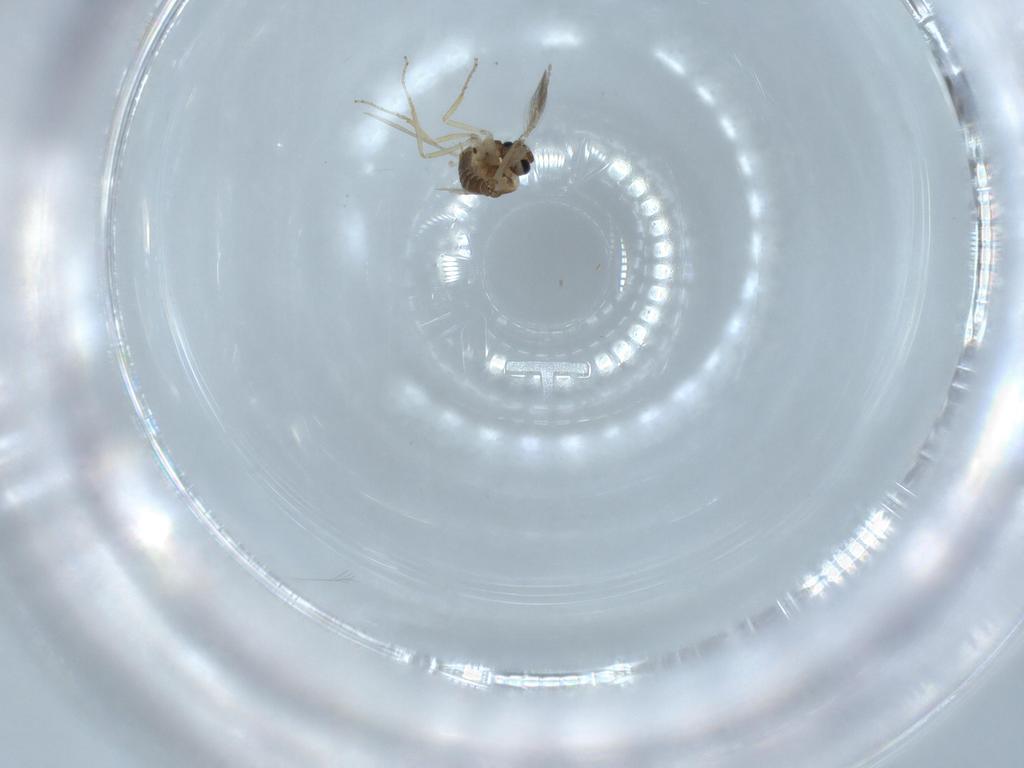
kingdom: Animalia
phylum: Arthropoda
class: Insecta
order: Diptera
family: Ceratopogonidae
